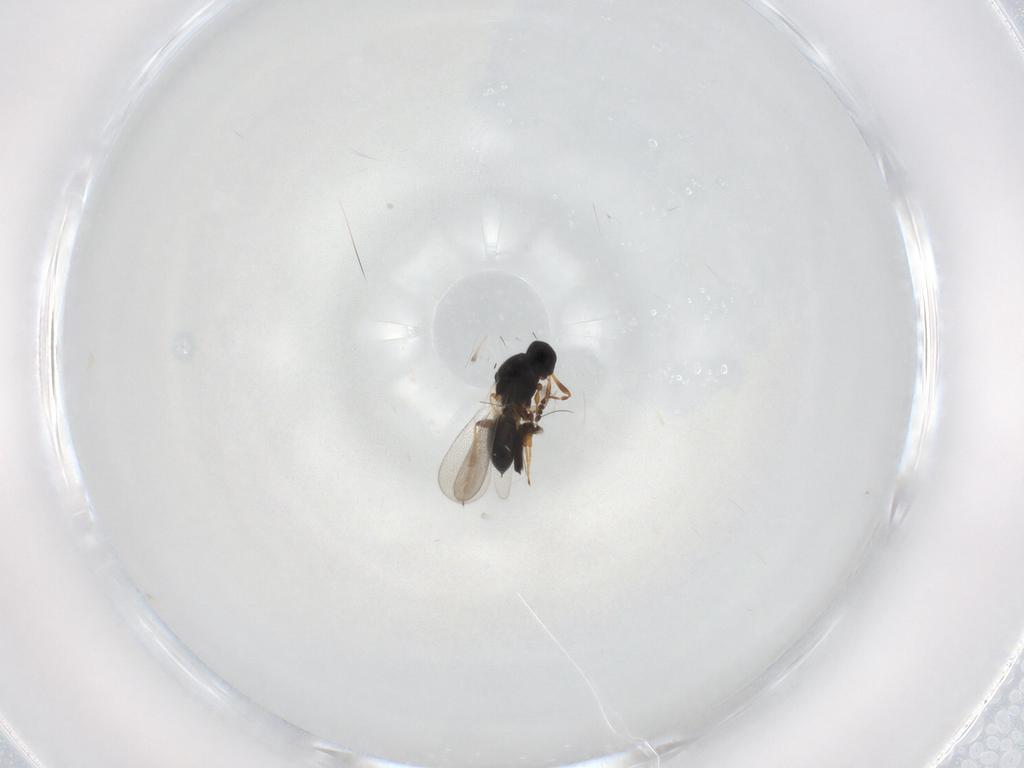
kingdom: Animalia
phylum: Arthropoda
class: Insecta
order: Hymenoptera
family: Platygastridae
